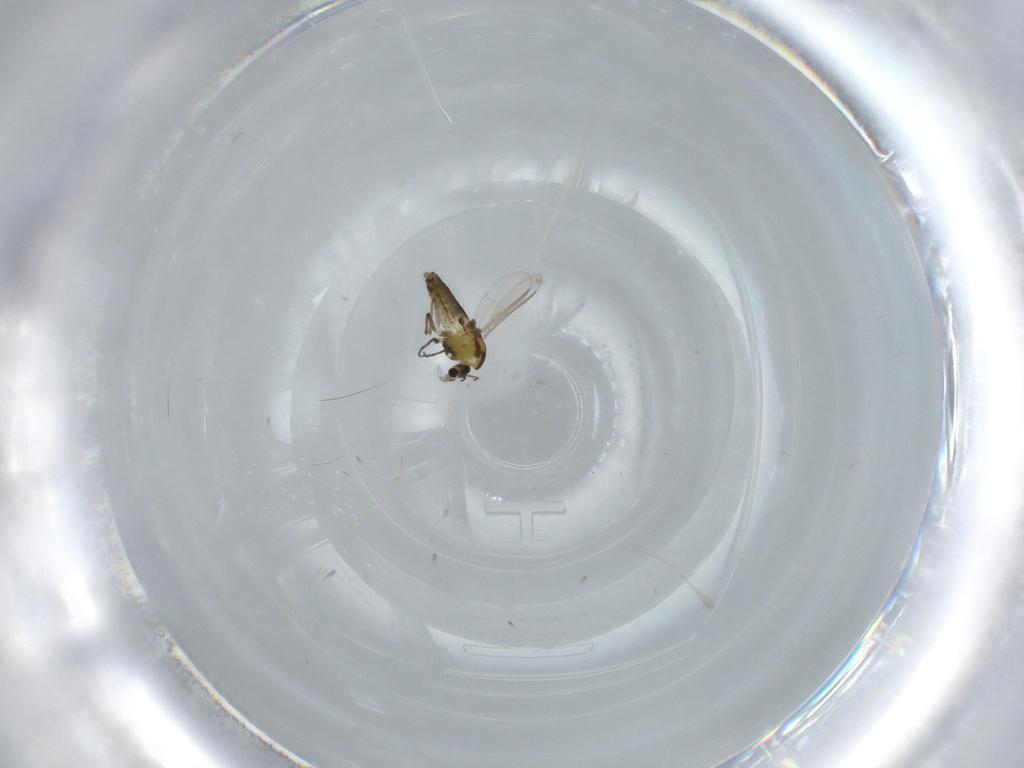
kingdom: Animalia
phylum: Arthropoda
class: Insecta
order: Diptera
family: Chironomidae
